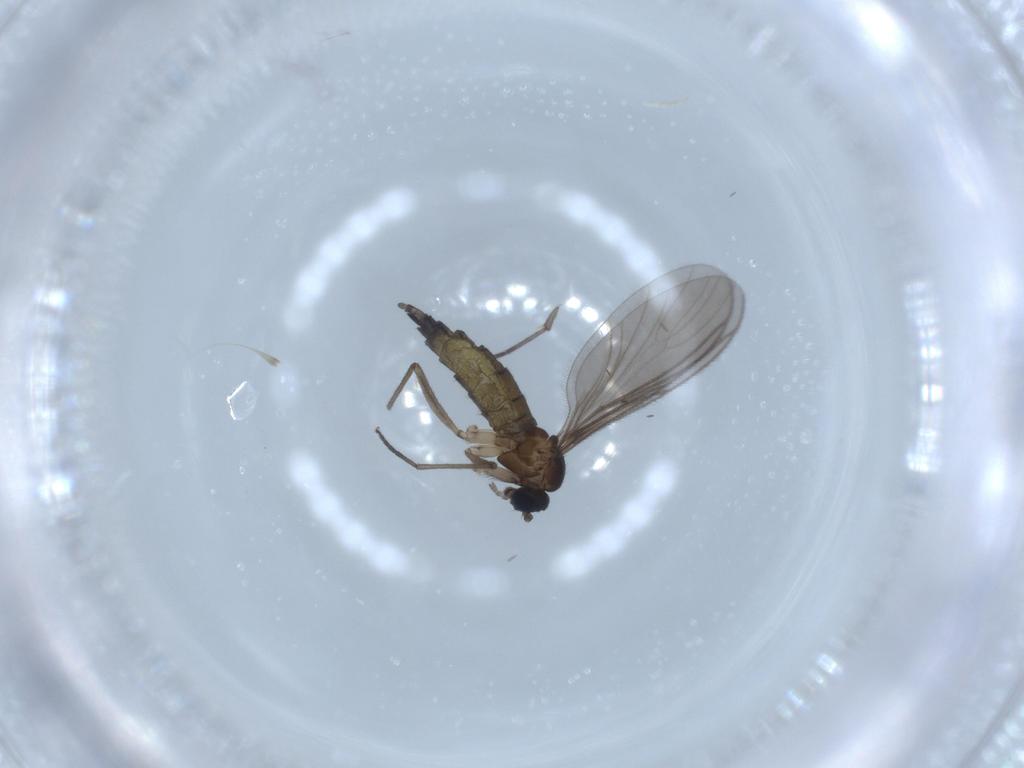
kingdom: Animalia
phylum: Arthropoda
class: Insecta
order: Diptera
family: Sciaridae
